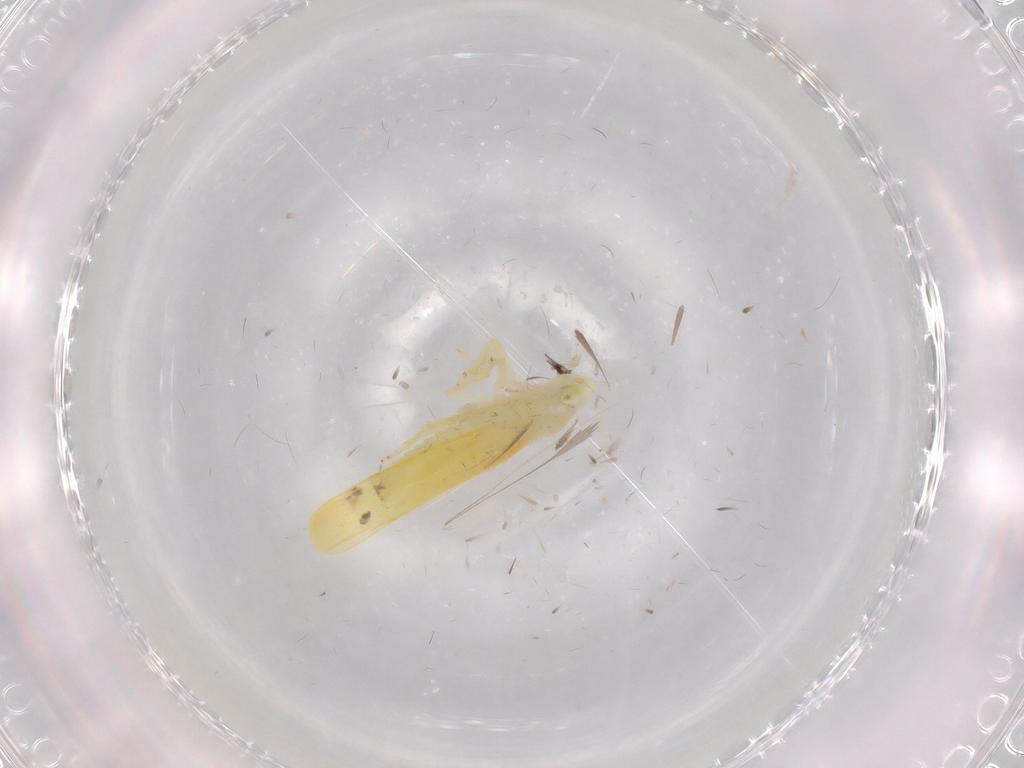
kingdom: Animalia
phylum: Arthropoda
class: Insecta
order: Hemiptera
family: Cicadellidae
